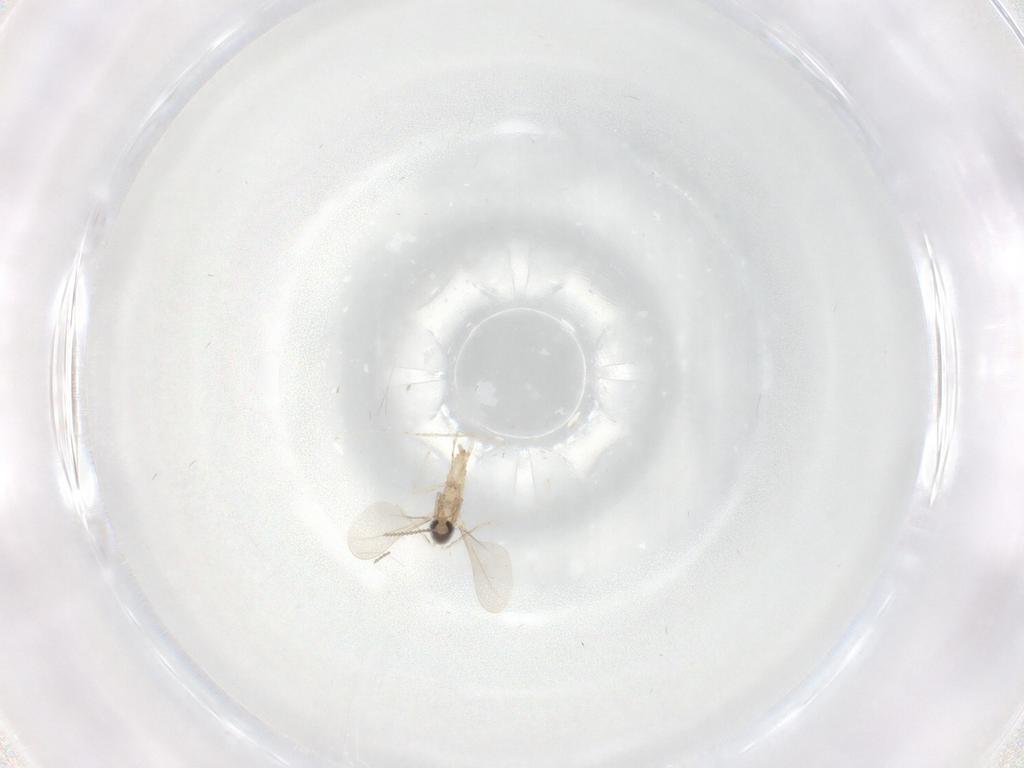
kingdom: Animalia
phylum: Arthropoda
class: Insecta
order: Diptera
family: Cecidomyiidae
